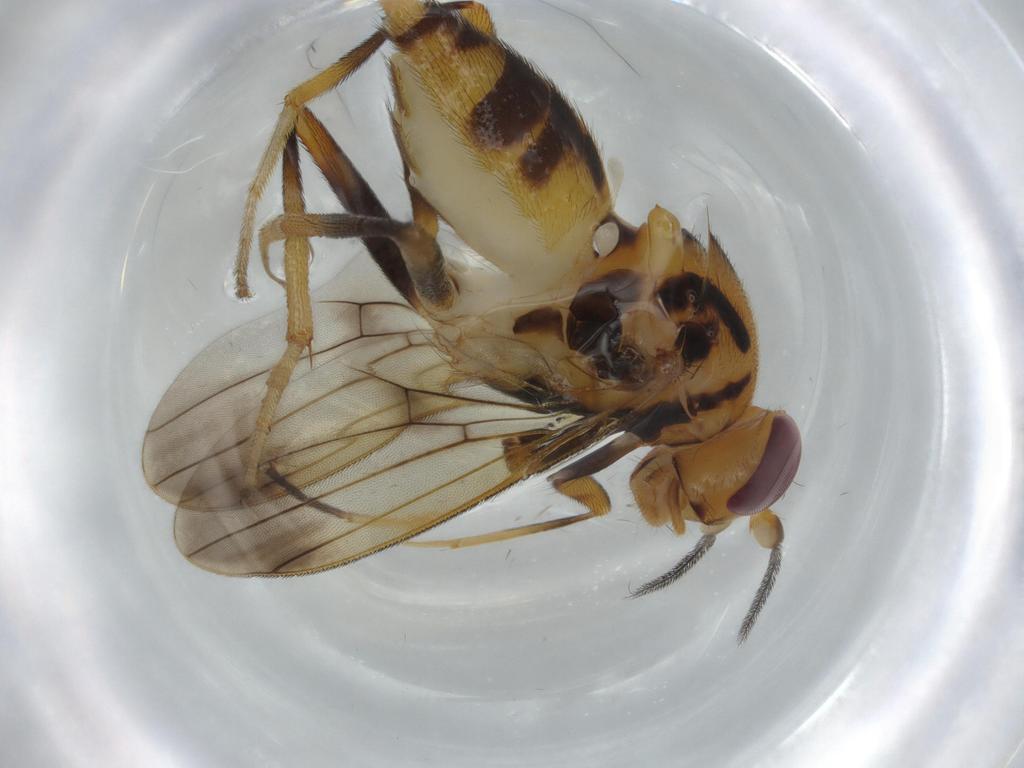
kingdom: Animalia
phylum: Arthropoda
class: Insecta
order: Diptera
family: Clusiidae
